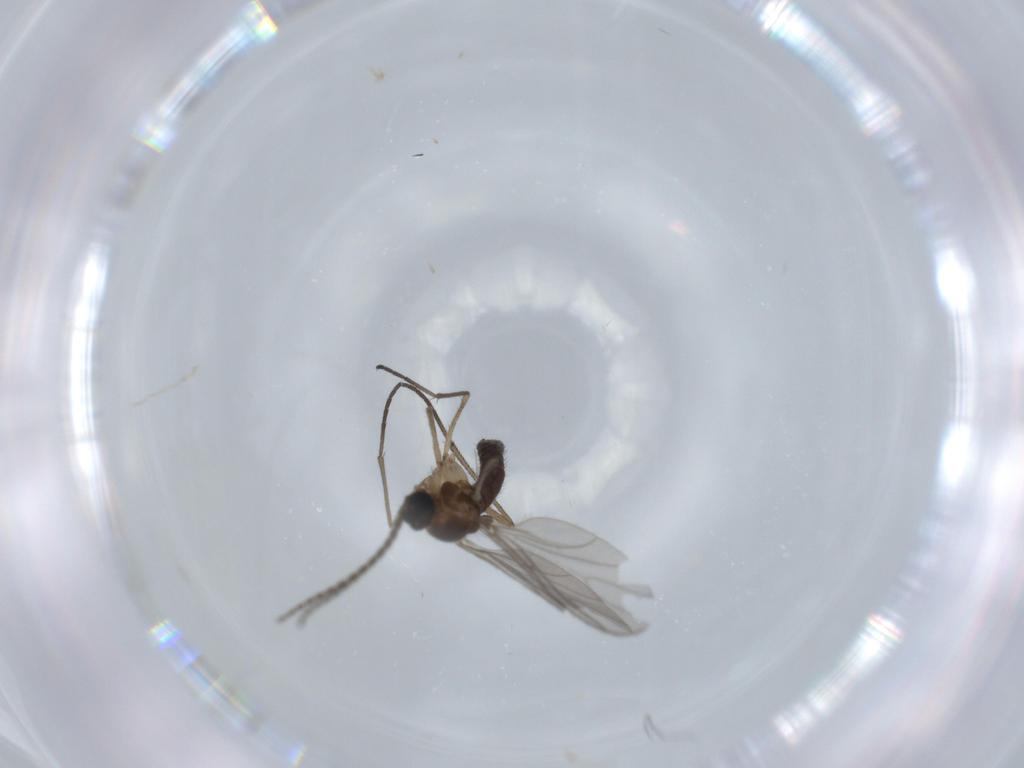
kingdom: Animalia
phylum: Arthropoda
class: Insecta
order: Diptera
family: Sciaridae
